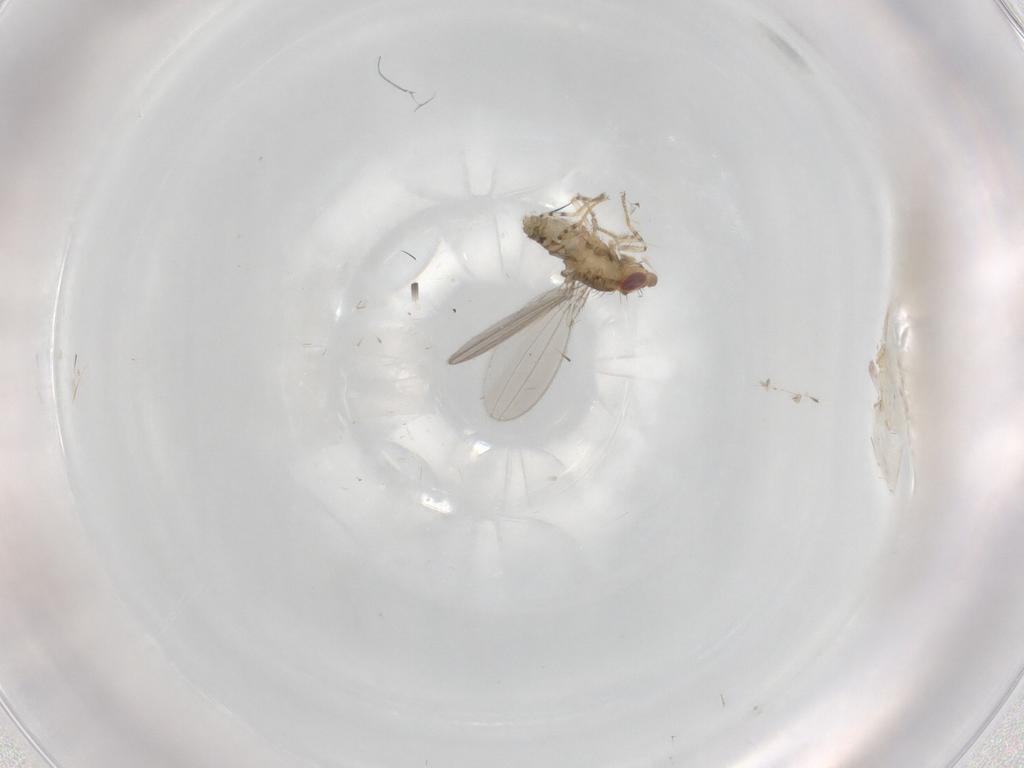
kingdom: Animalia
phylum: Arthropoda
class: Insecta
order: Diptera
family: Asteiidae
